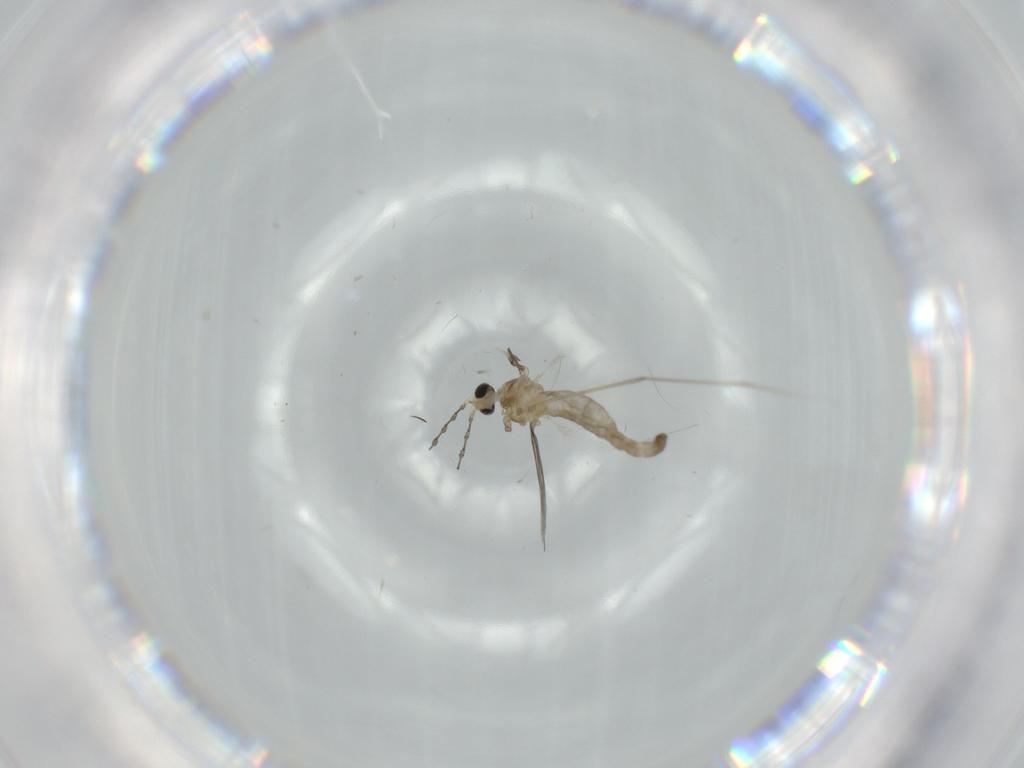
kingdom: Animalia
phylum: Arthropoda
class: Insecta
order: Diptera
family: Cecidomyiidae
